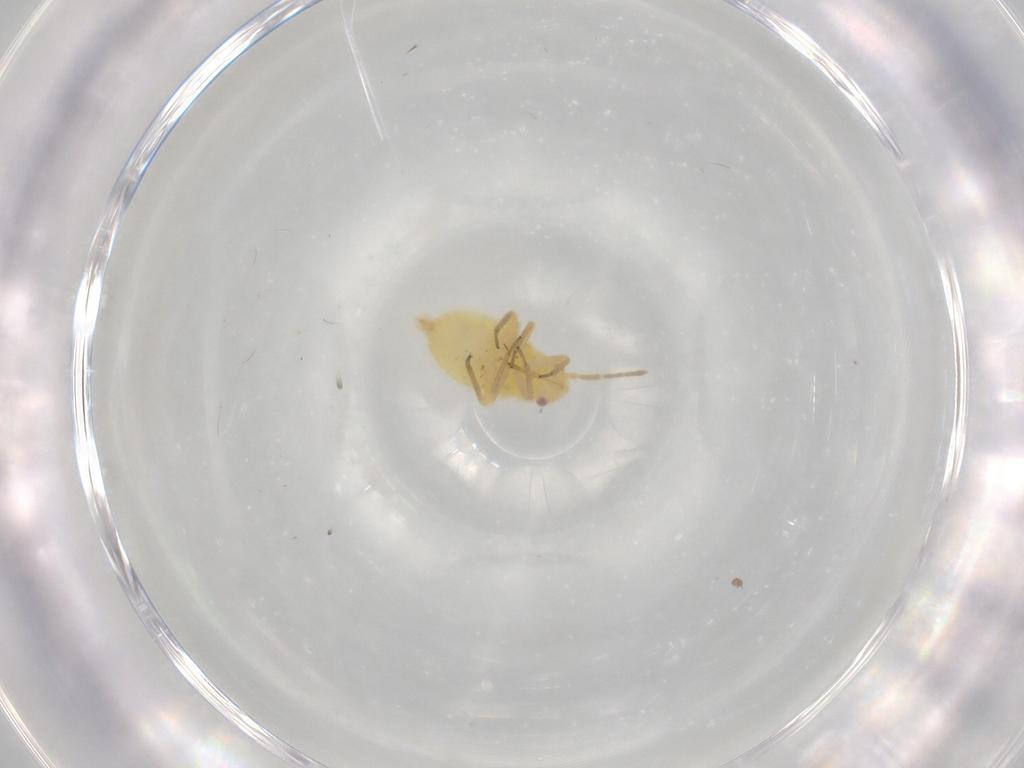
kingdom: Animalia
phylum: Arthropoda
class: Insecta
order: Hemiptera
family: Miridae
